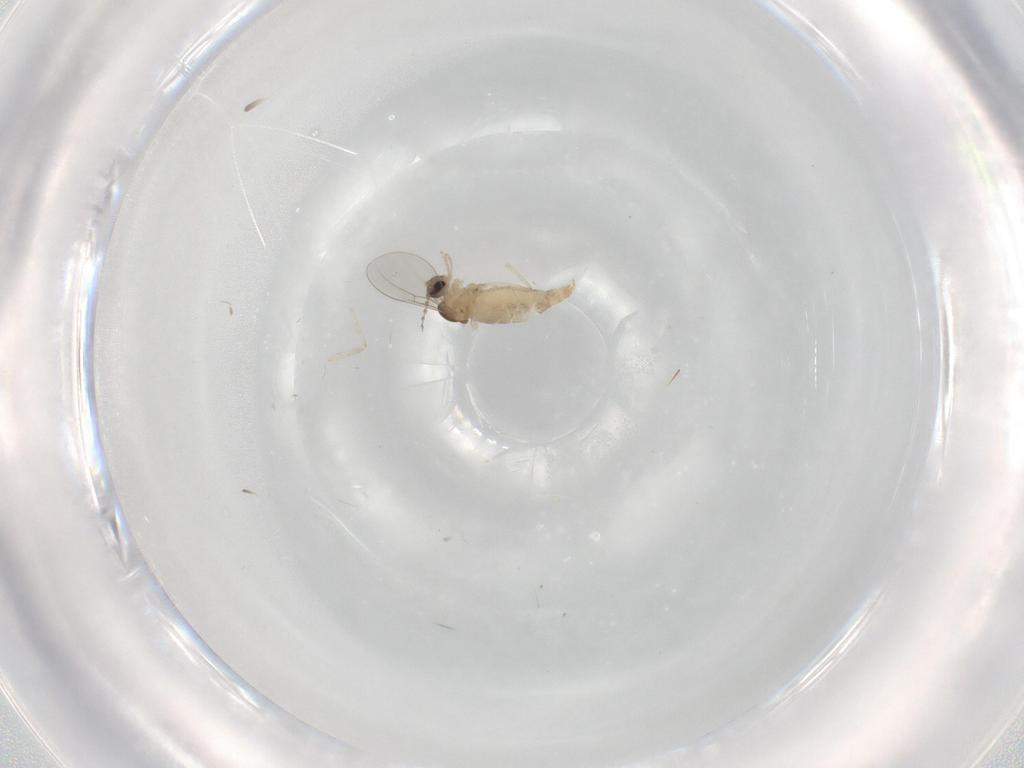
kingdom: Animalia
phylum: Arthropoda
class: Insecta
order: Diptera
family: Cecidomyiidae
